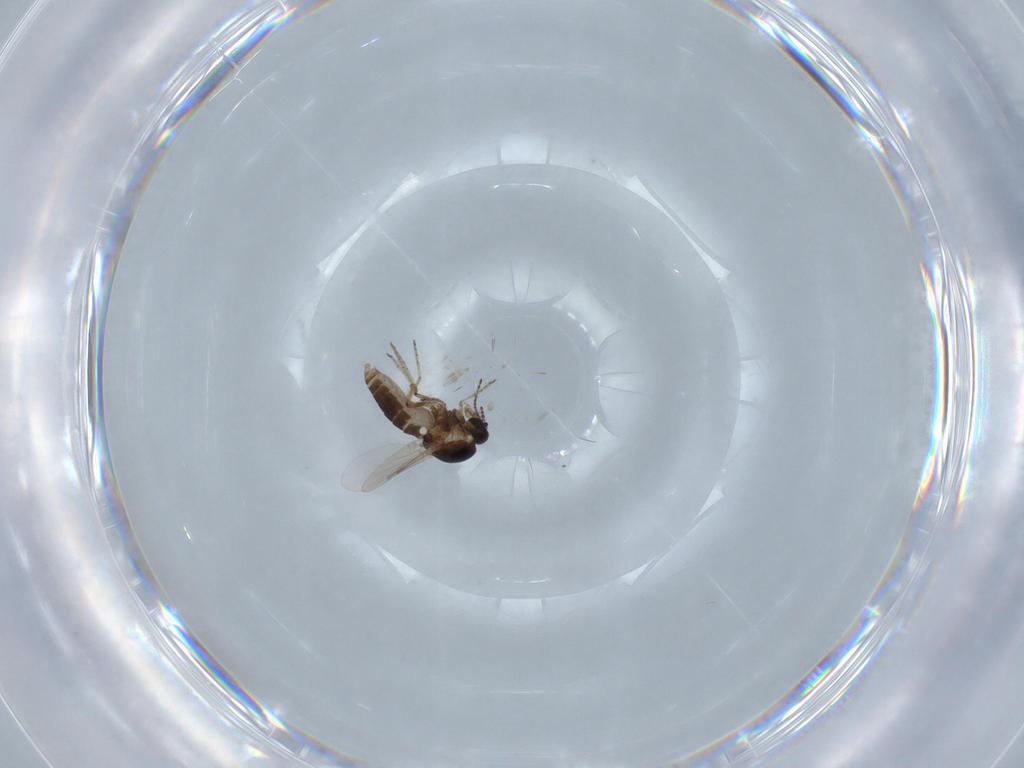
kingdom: Animalia
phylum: Arthropoda
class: Insecta
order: Diptera
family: Ceratopogonidae
